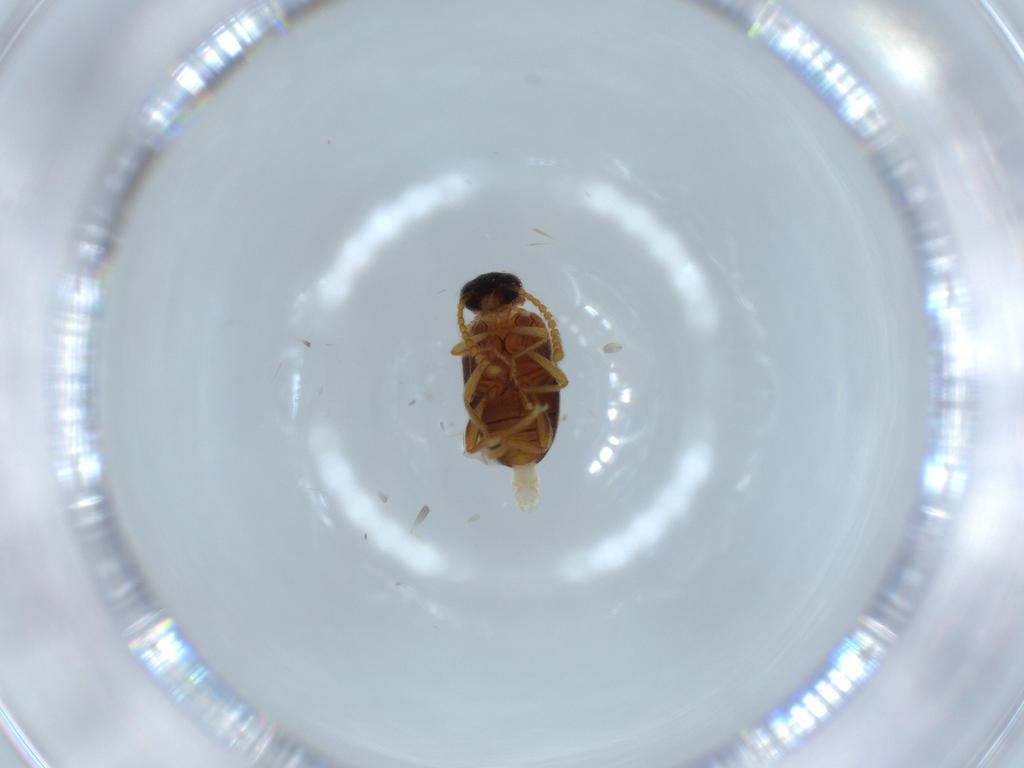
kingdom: Animalia
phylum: Arthropoda
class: Insecta
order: Coleoptera
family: Aderidae
